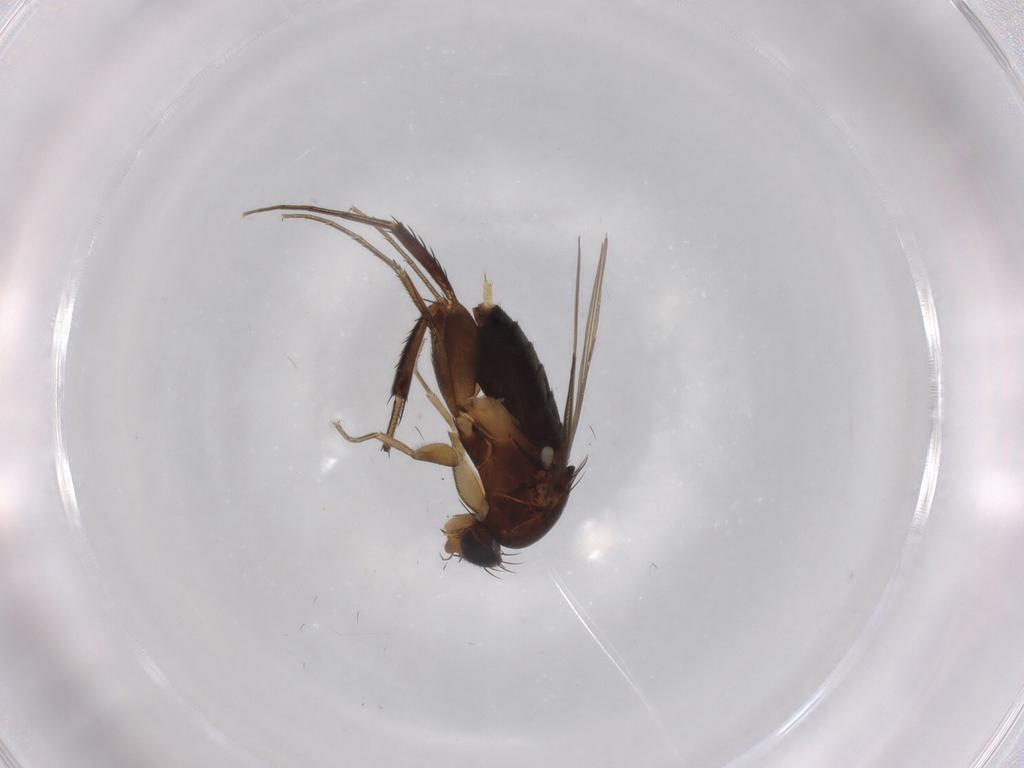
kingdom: Animalia
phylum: Arthropoda
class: Insecta
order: Diptera
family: Phoridae
